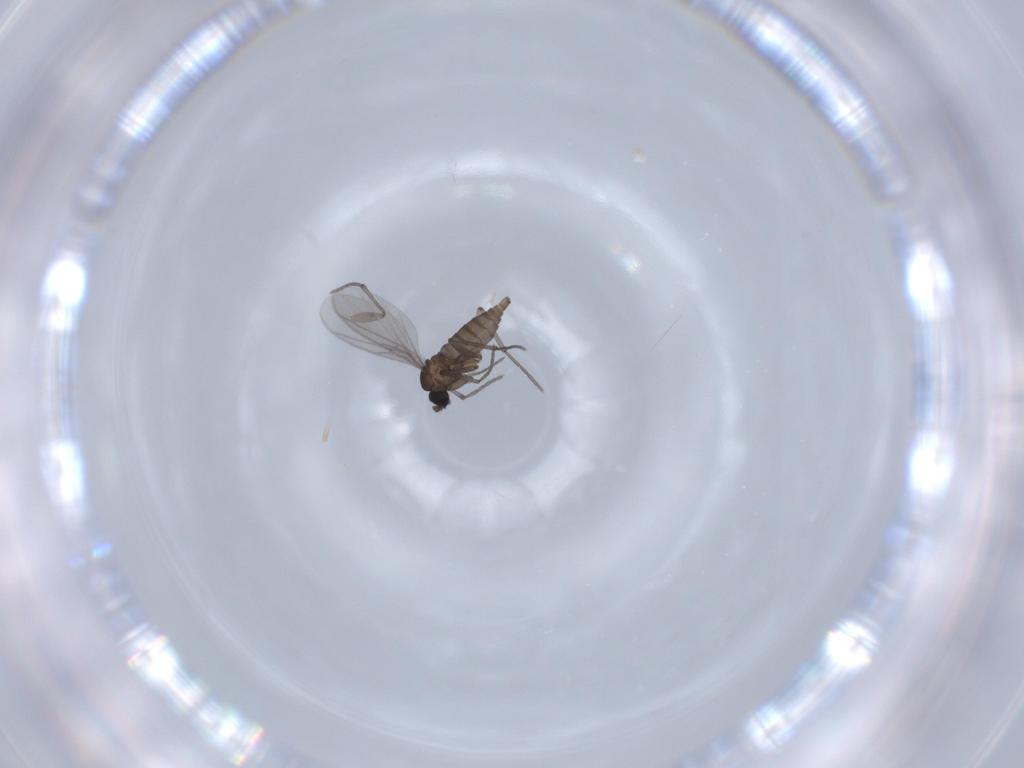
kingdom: Animalia
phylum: Arthropoda
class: Insecta
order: Diptera
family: Sciaridae
